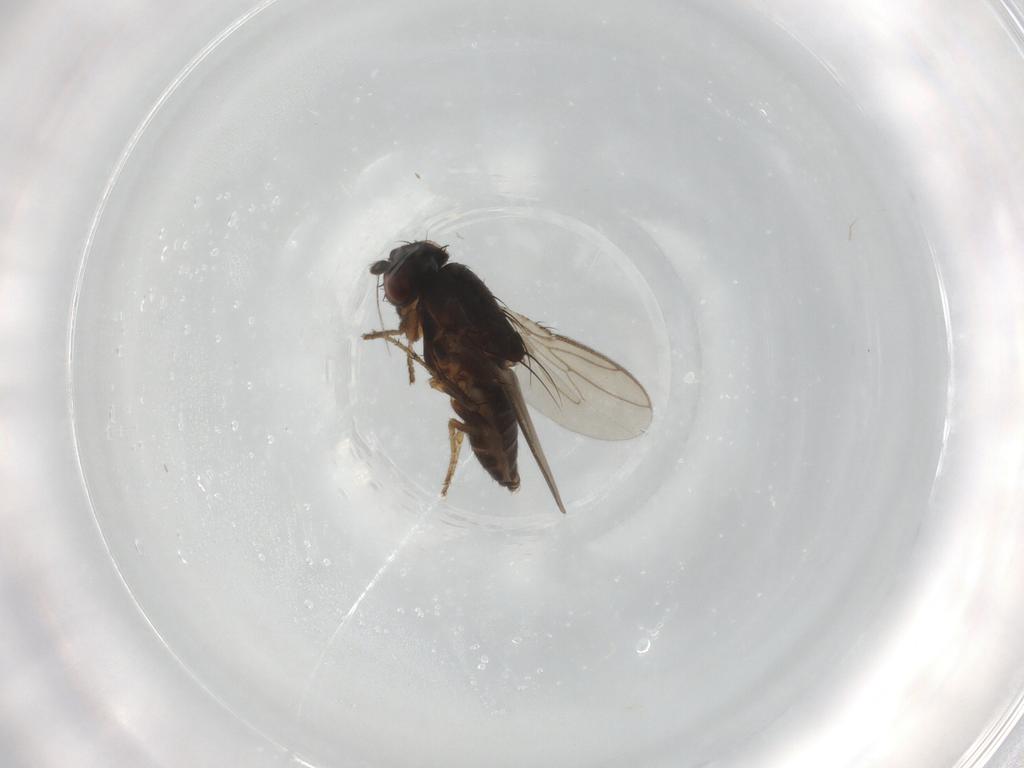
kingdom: Animalia
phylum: Arthropoda
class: Insecta
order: Diptera
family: Sphaeroceridae
